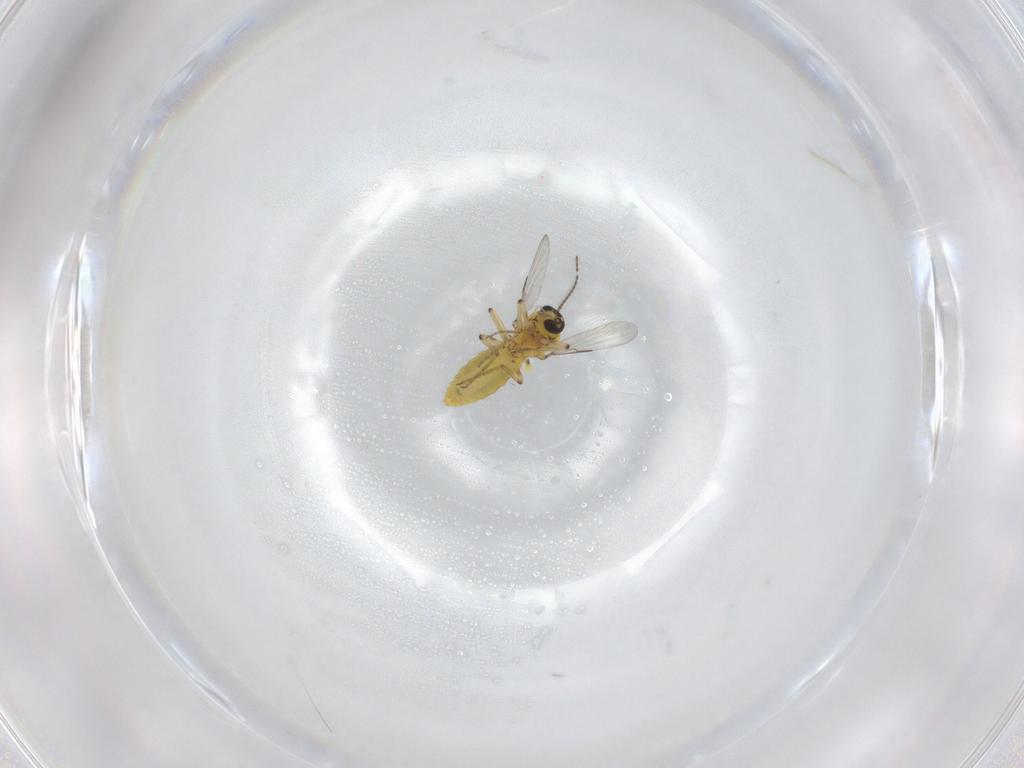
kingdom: Animalia
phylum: Arthropoda
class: Insecta
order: Diptera
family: Ceratopogonidae
